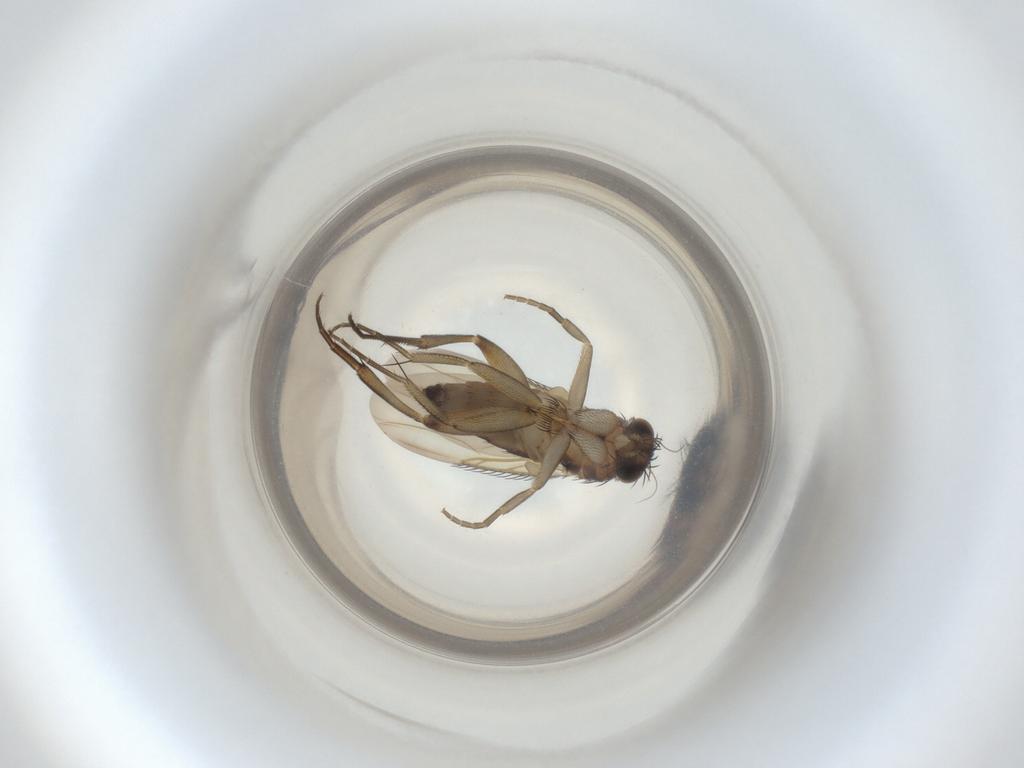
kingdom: Animalia
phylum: Arthropoda
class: Insecta
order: Diptera
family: Phoridae
